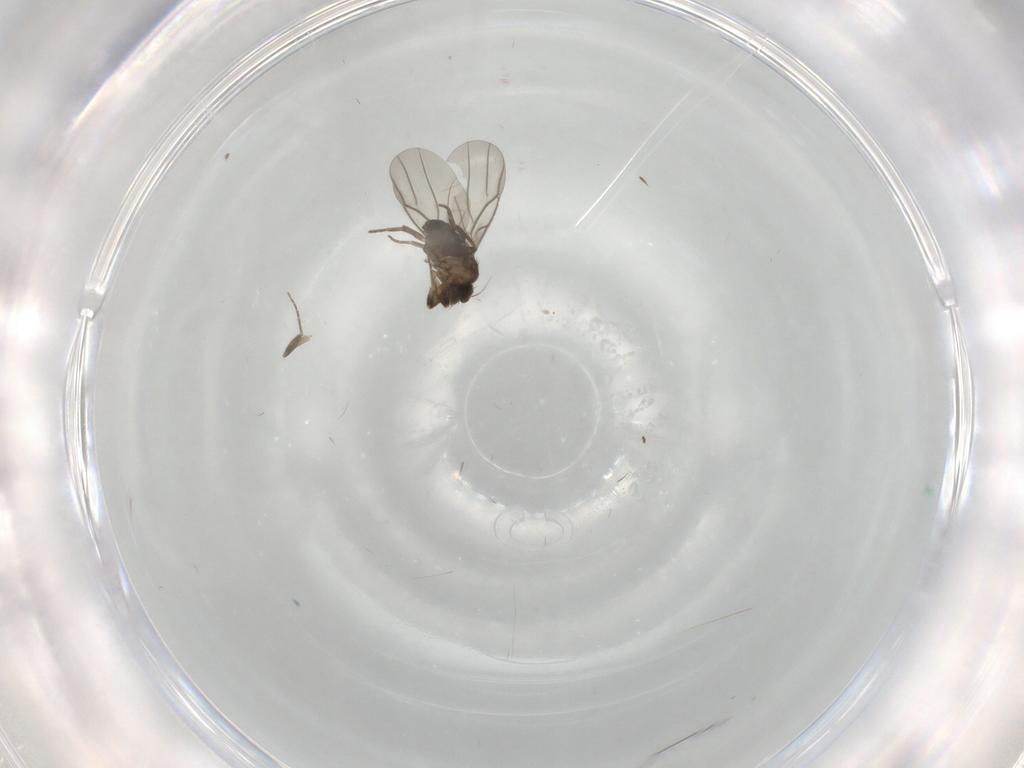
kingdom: Animalia
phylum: Arthropoda
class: Insecta
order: Diptera
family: Phoridae
